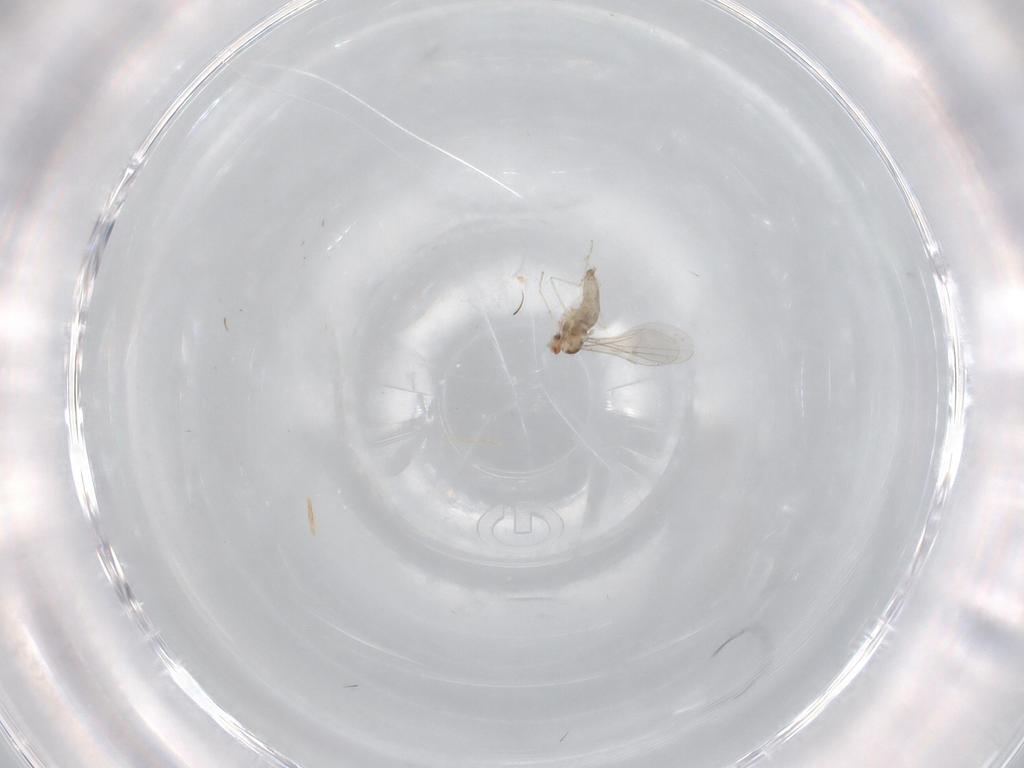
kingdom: Animalia
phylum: Arthropoda
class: Insecta
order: Diptera
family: Cecidomyiidae
